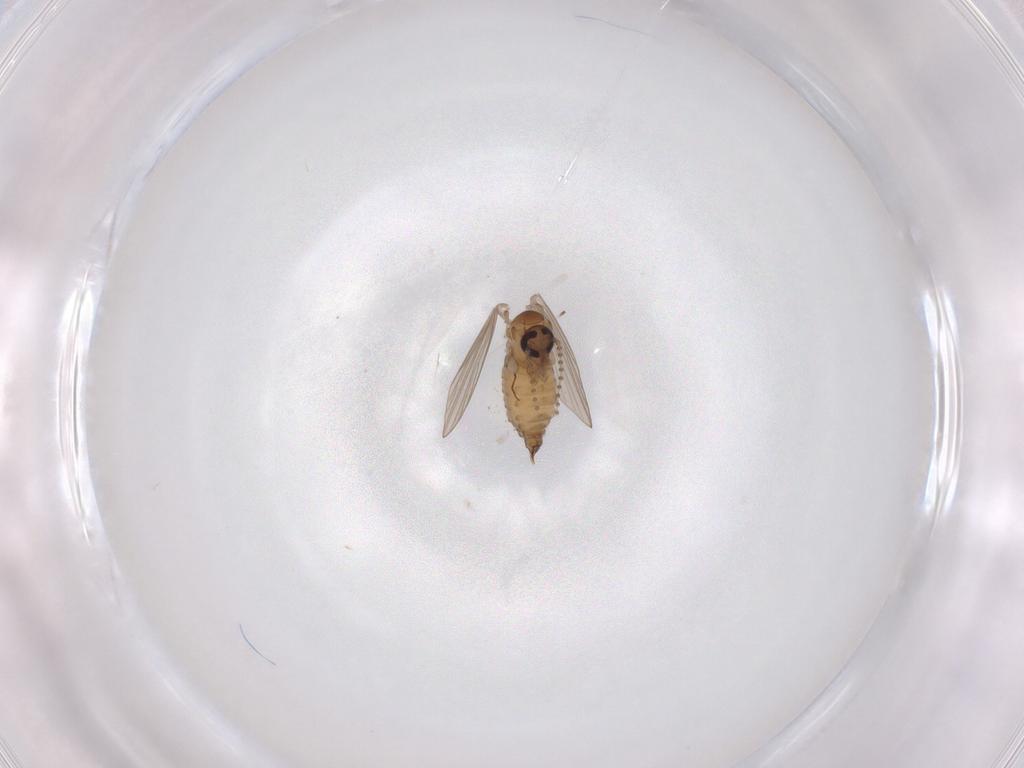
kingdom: Animalia
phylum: Arthropoda
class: Insecta
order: Diptera
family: Psychodidae
